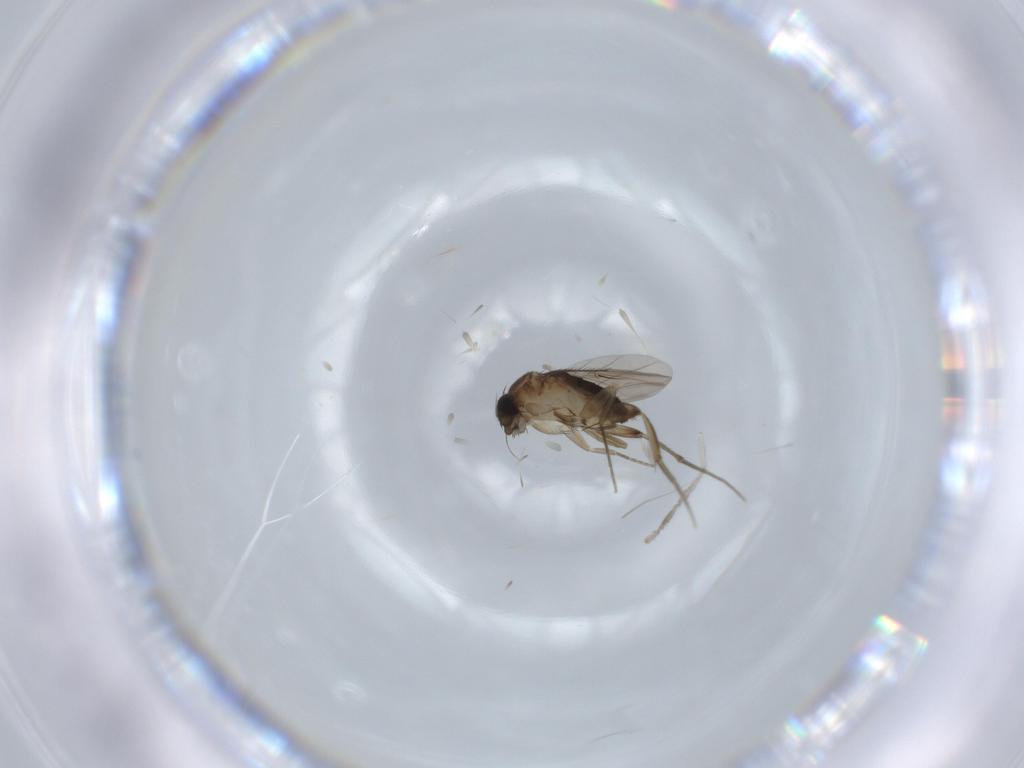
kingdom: Animalia
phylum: Arthropoda
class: Insecta
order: Diptera
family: Phoridae
